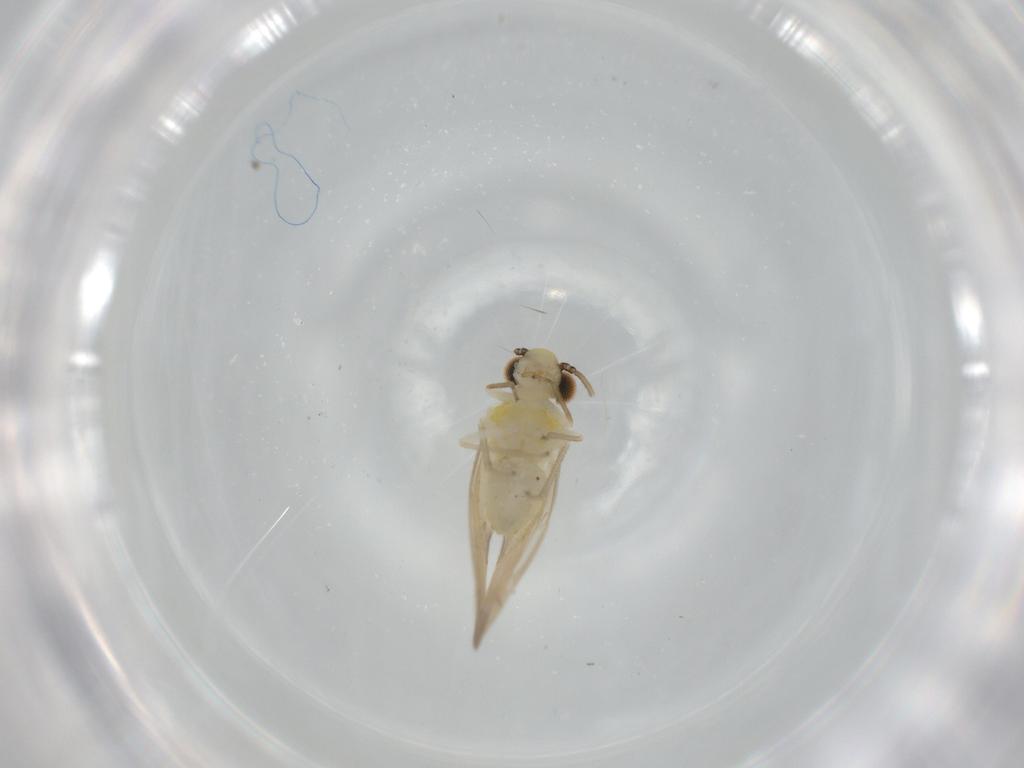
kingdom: Animalia
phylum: Arthropoda
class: Insecta
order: Psocodea
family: Caeciliusidae
